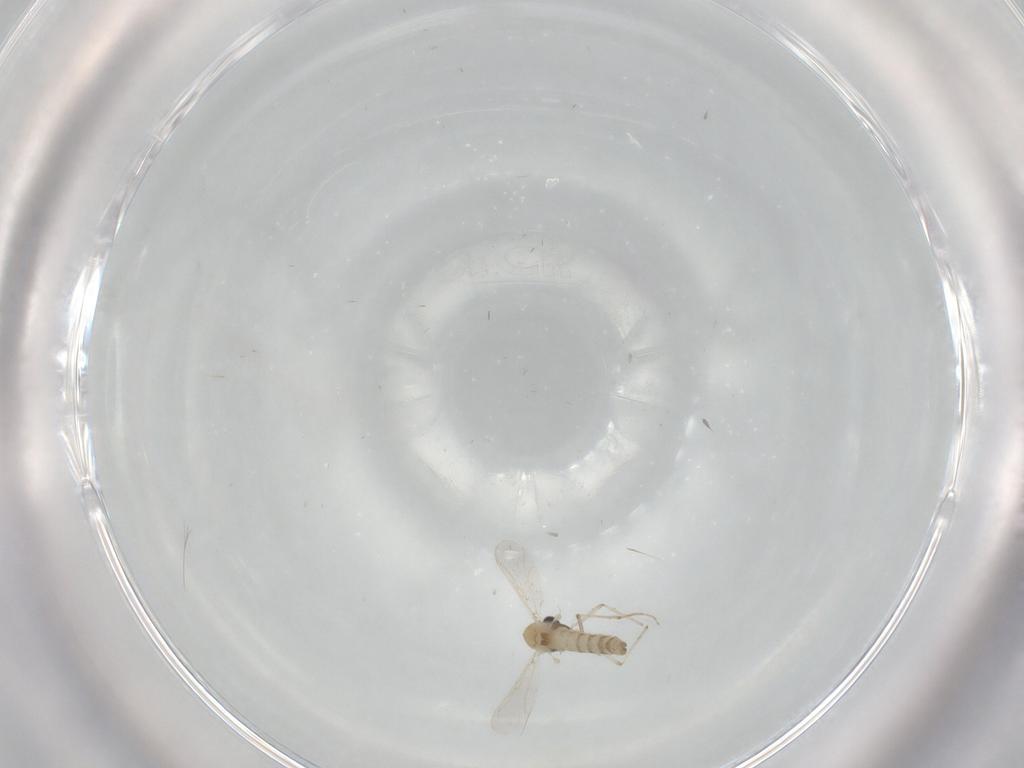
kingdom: Animalia
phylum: Arthropoda
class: Insecta
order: Diptera
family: Chironomidae
